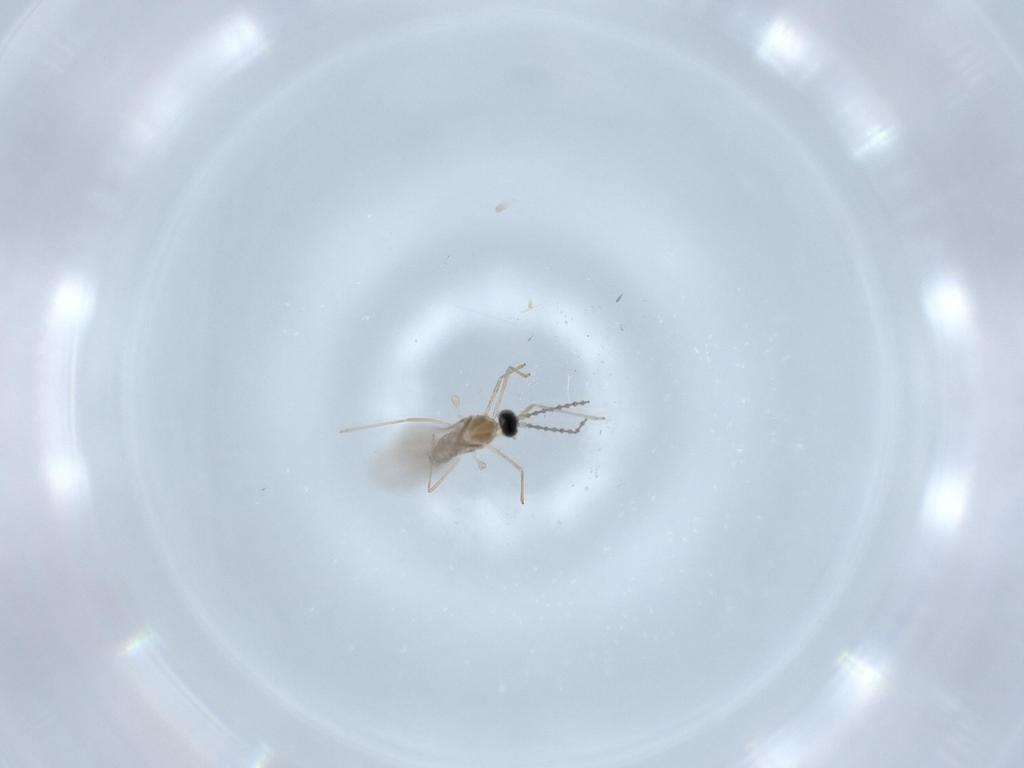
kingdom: Animalia
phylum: Arthropoda
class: Insecta
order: Diptera
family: Cecidomyiidae
